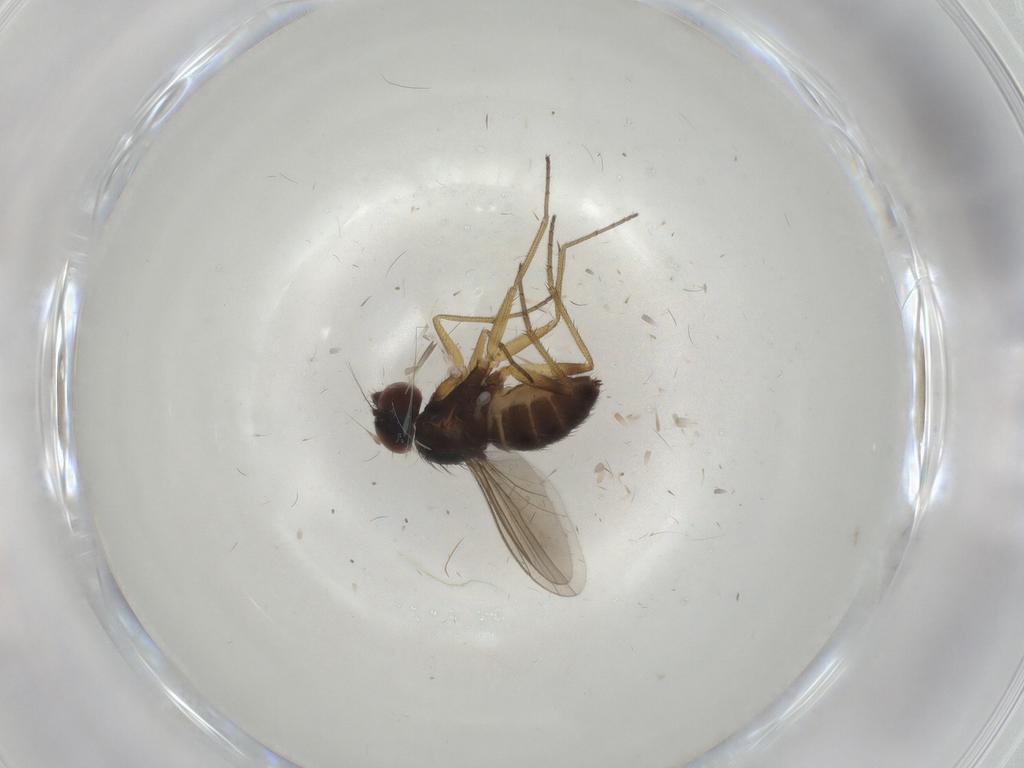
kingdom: Animalia
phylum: Arthropoda
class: Insecta
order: Diptera
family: Dolichopodidae
